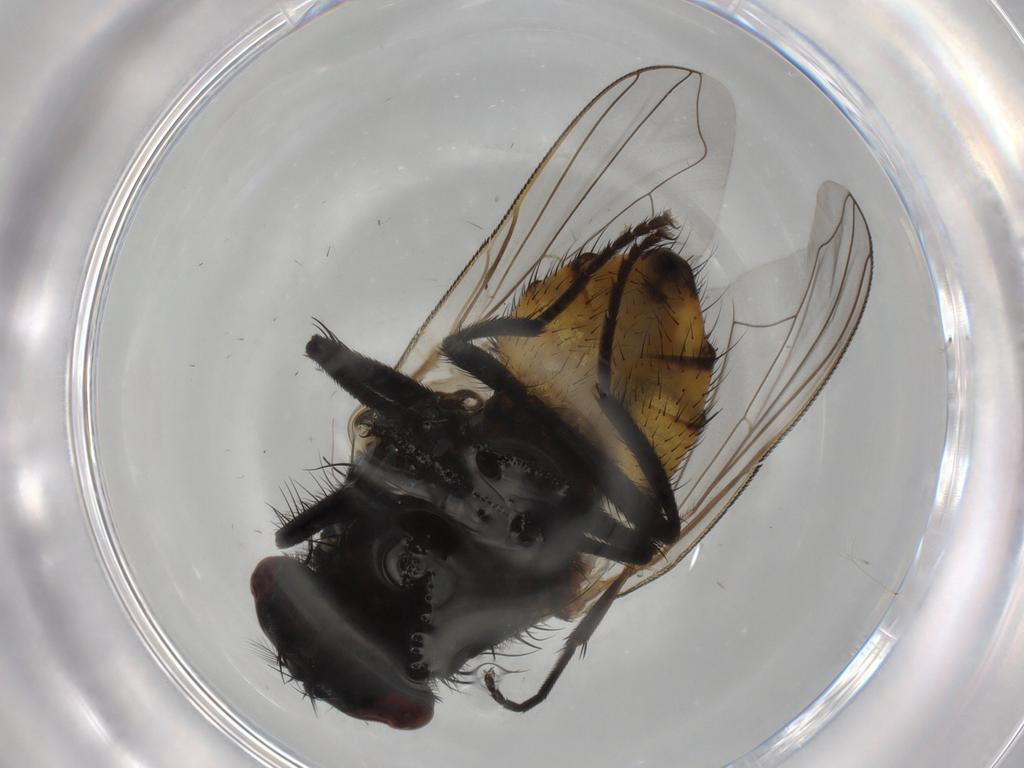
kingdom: Animalia
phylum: Arthropoda
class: Insecta
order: Diptera
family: Muscidae
